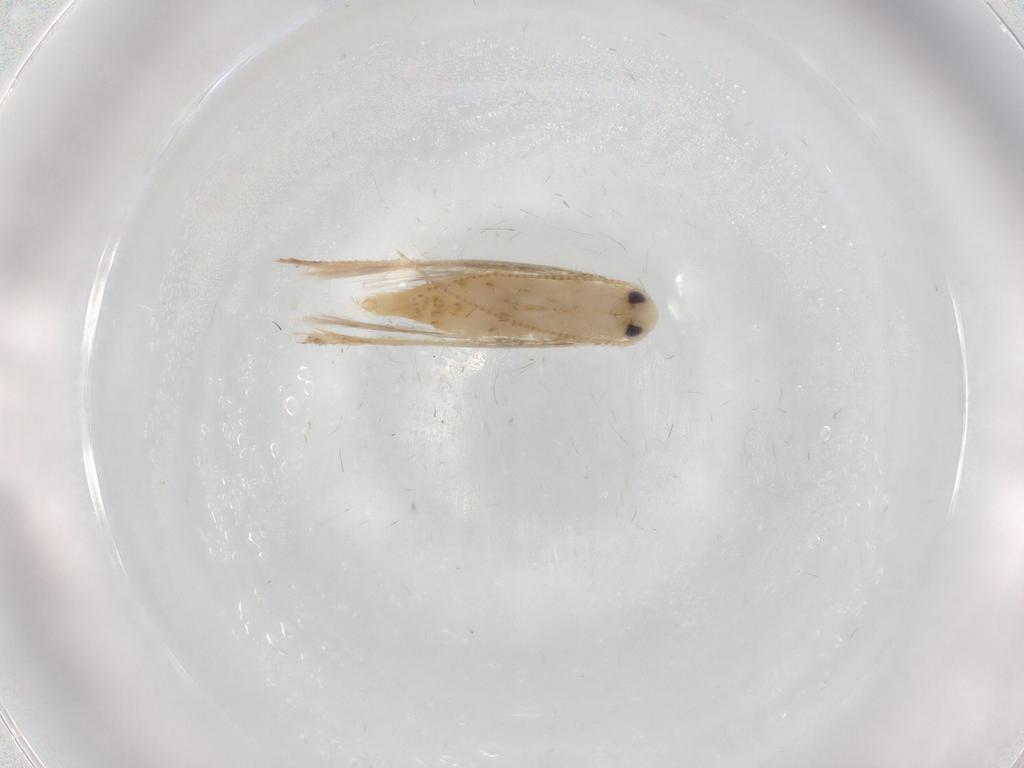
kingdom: Animalia
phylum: Arthropoda
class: Insecta
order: Lepidoptera
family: Gracillariidae
